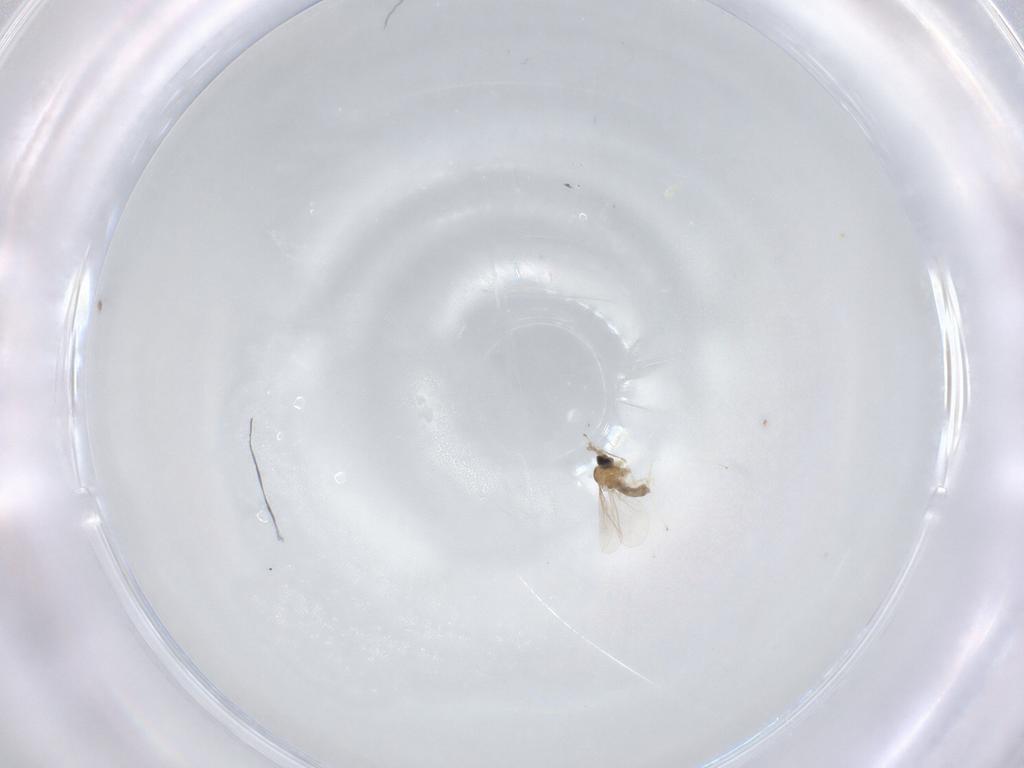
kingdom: Animalia
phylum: Arthropoda
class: Insecta
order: Diptera
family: Cecidomyiidae
